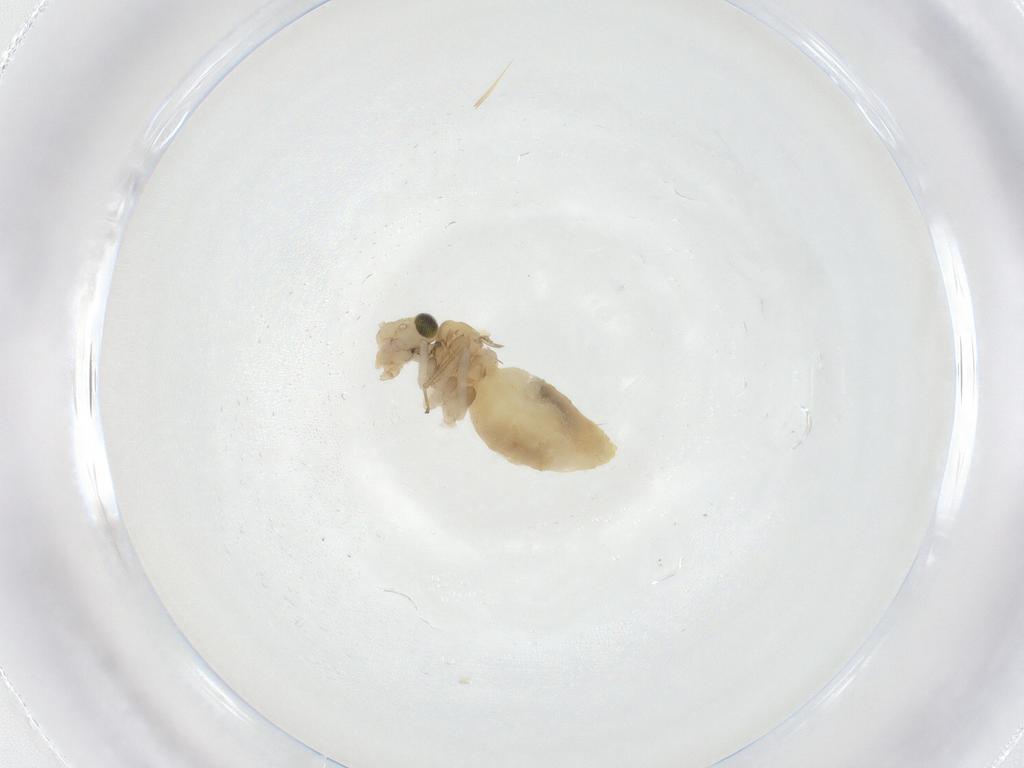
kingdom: Animalia
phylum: Arthropoda
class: Insecta
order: Psocodea
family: Caeciliusidae
